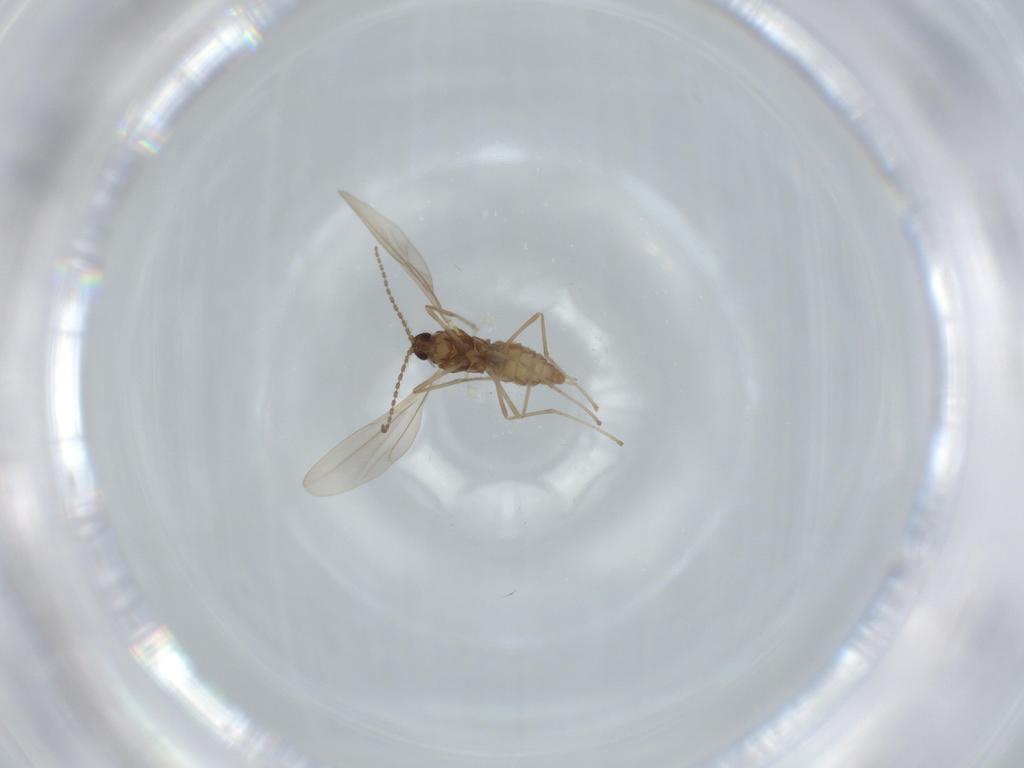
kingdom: Animalia
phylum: Arthropoda
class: Insecta
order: Diptera
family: Cecidomyiidae
